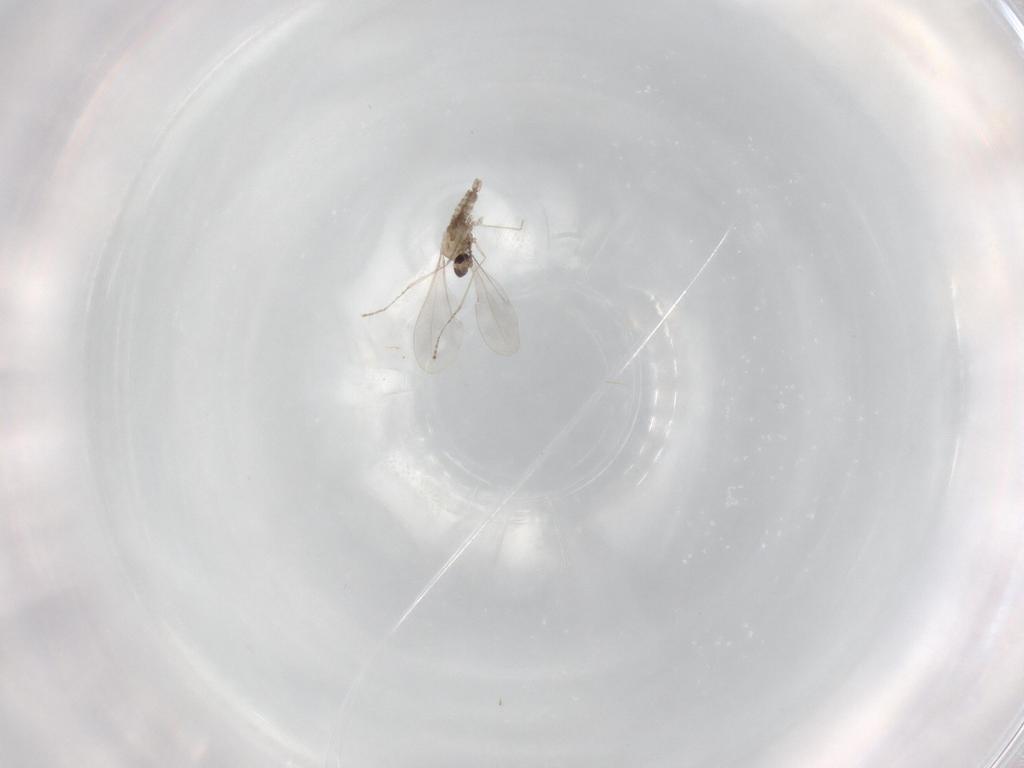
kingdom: Animalia
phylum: Arthropoda
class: Insecta
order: Diptera
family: Cecidomyiidae
